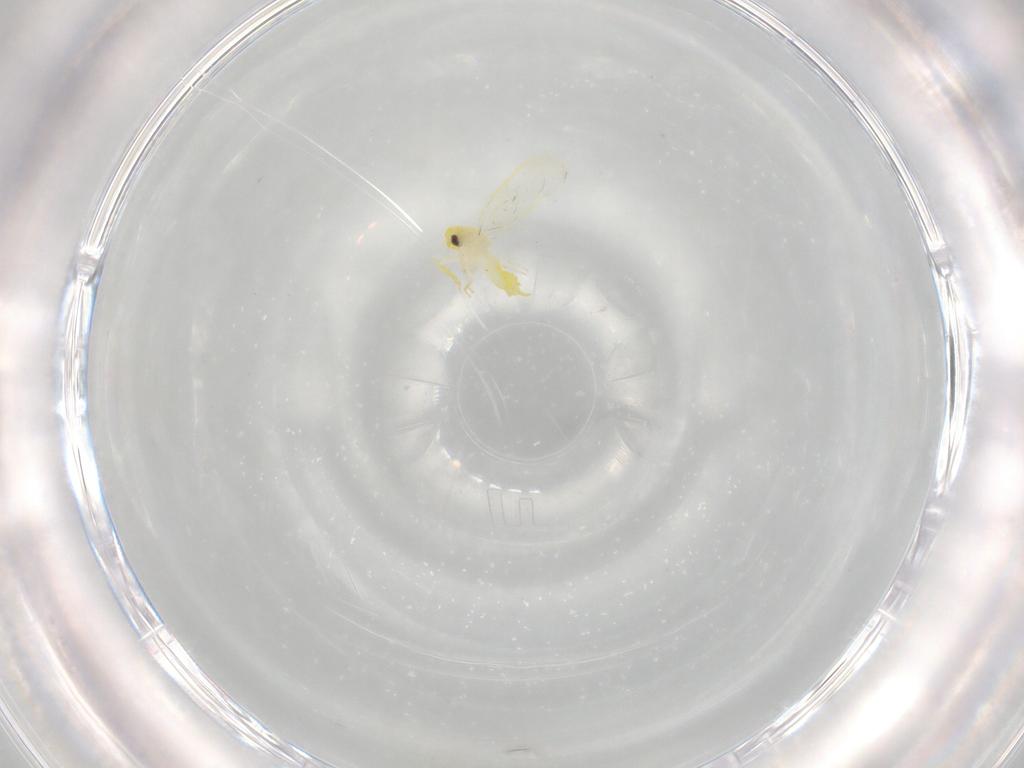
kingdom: Animalia
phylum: Arthropoda
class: Insecta
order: Hemiptera
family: Aleyrodidae
